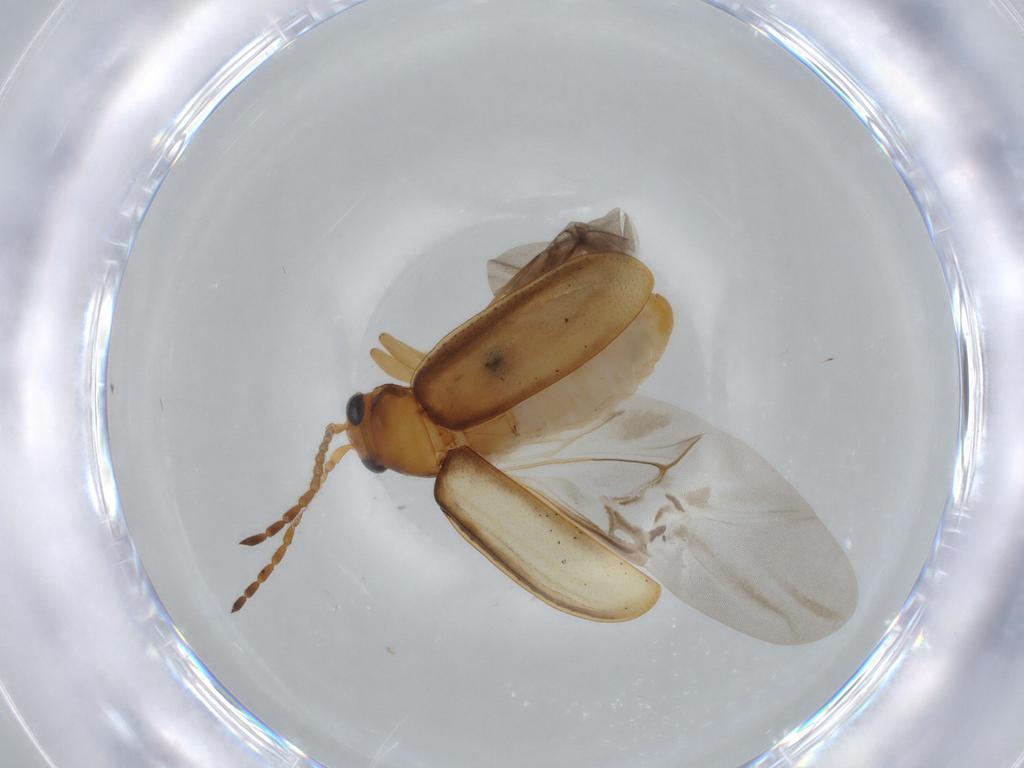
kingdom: Animalia
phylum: Arthropoda
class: Insecta
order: Coleoptera
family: Chrysomelidae
